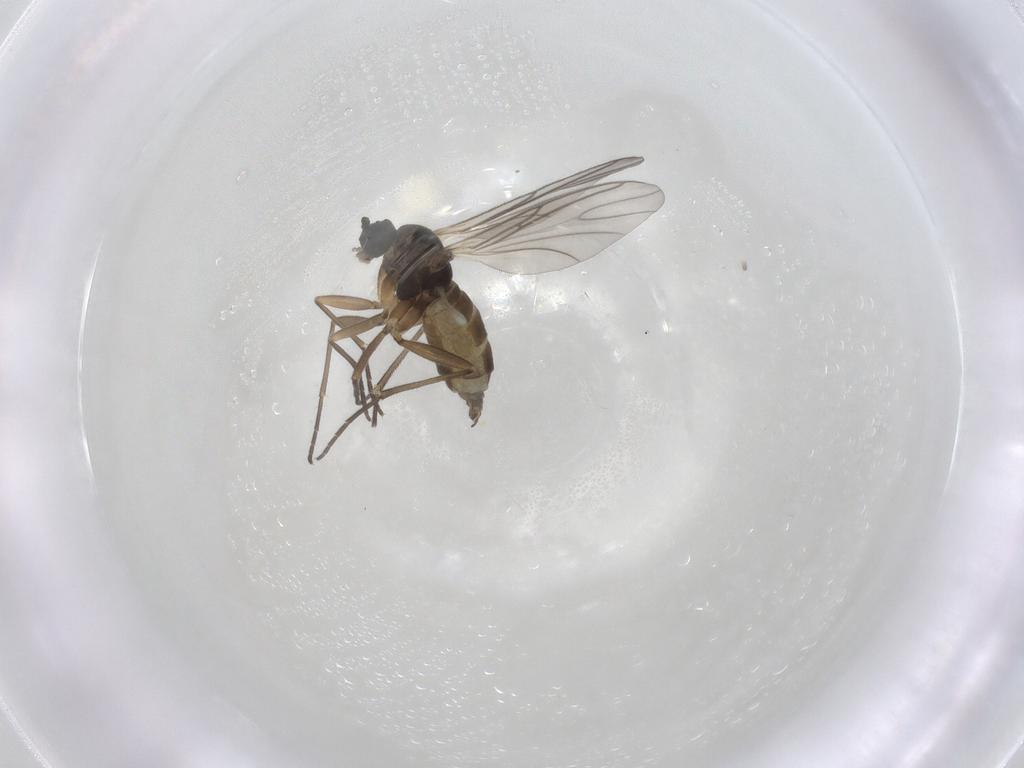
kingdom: Animalia
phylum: Arthropoda
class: Insecta
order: Diptera
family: Sciaridae
